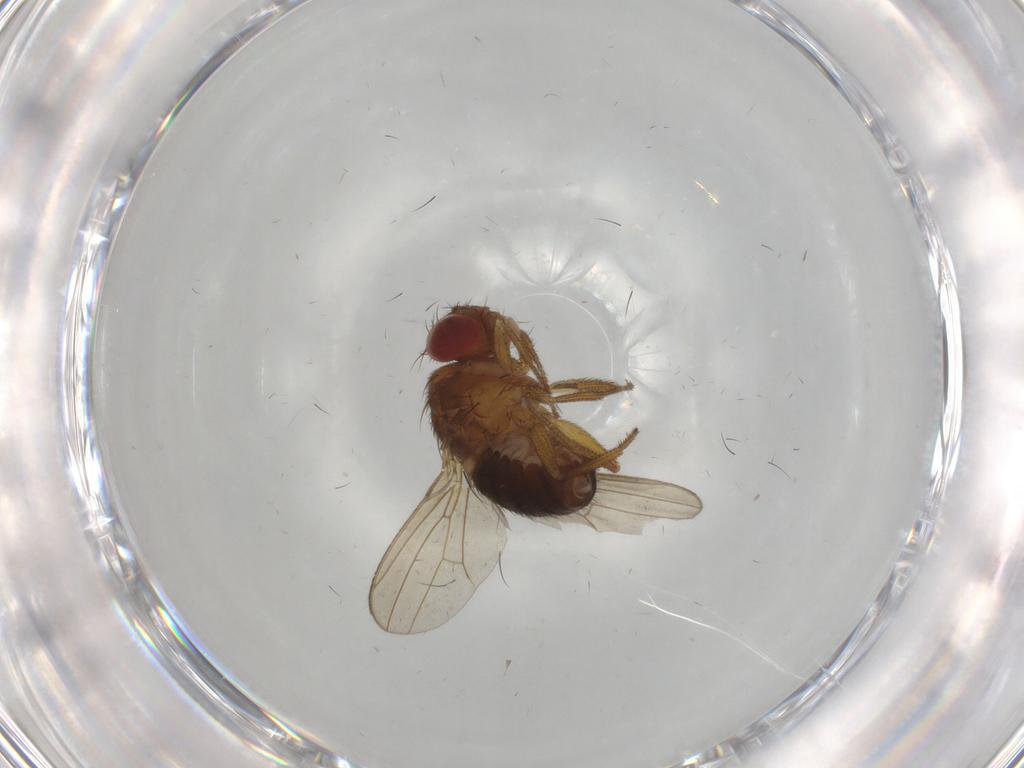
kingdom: Animalia
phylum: Arthropoda
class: Insecta
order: Diptera
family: Drosophilidae
